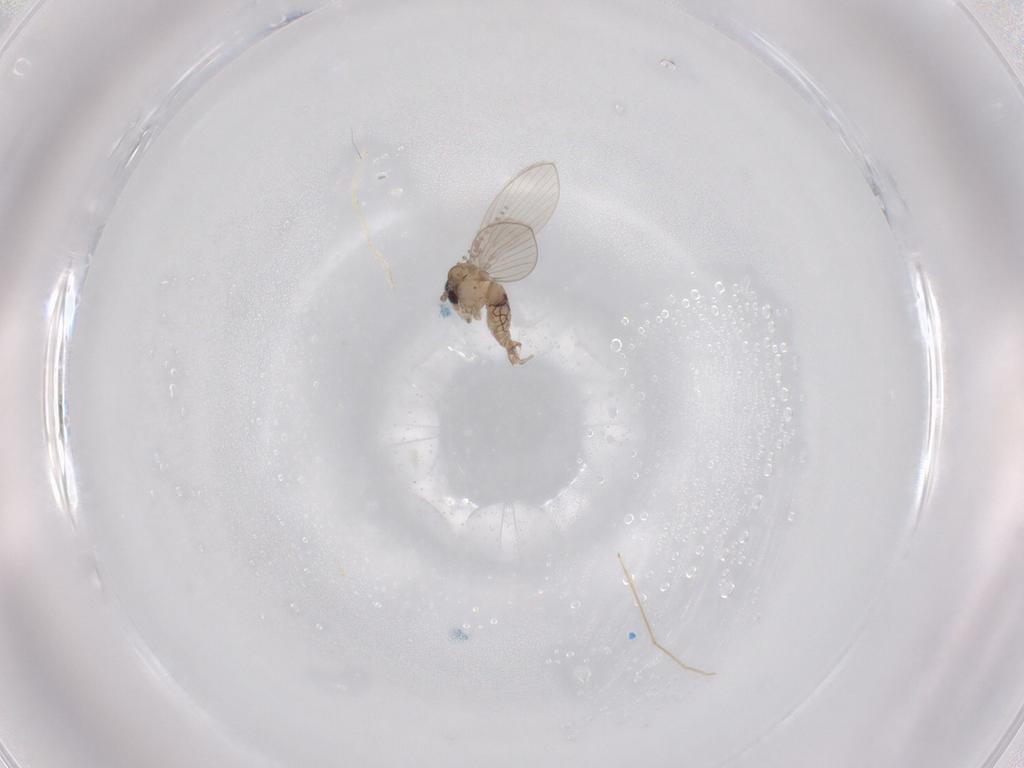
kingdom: Animalia
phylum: Arthropoda
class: Insecta
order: Diptera
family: Psychodidae
